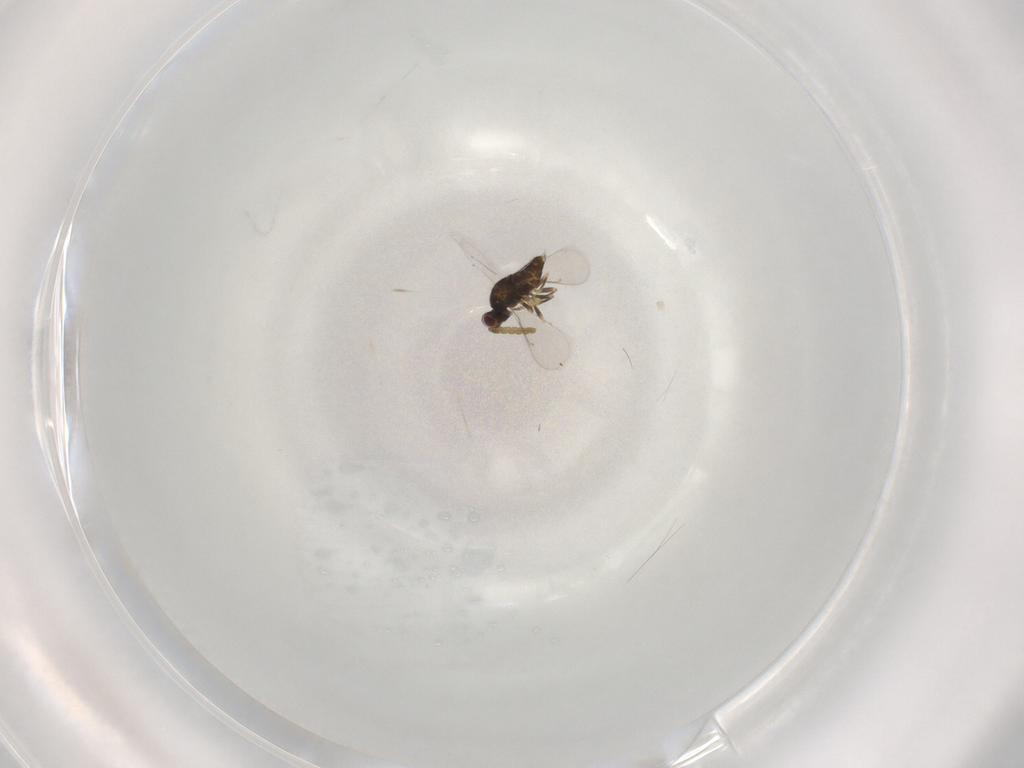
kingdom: Animalia
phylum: Arthropoda
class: Insecta
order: Hymenoptera
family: Aphelinidae
